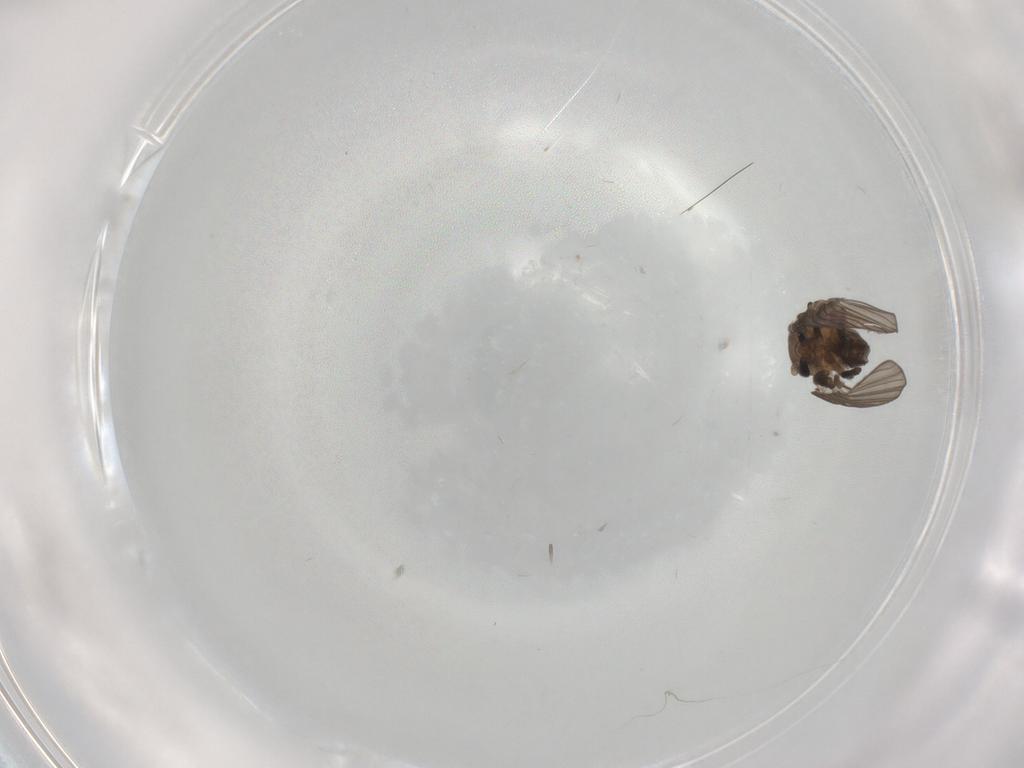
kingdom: Animalia
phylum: Arthropoda
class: Insecta
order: Diptera
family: Psychodidae
